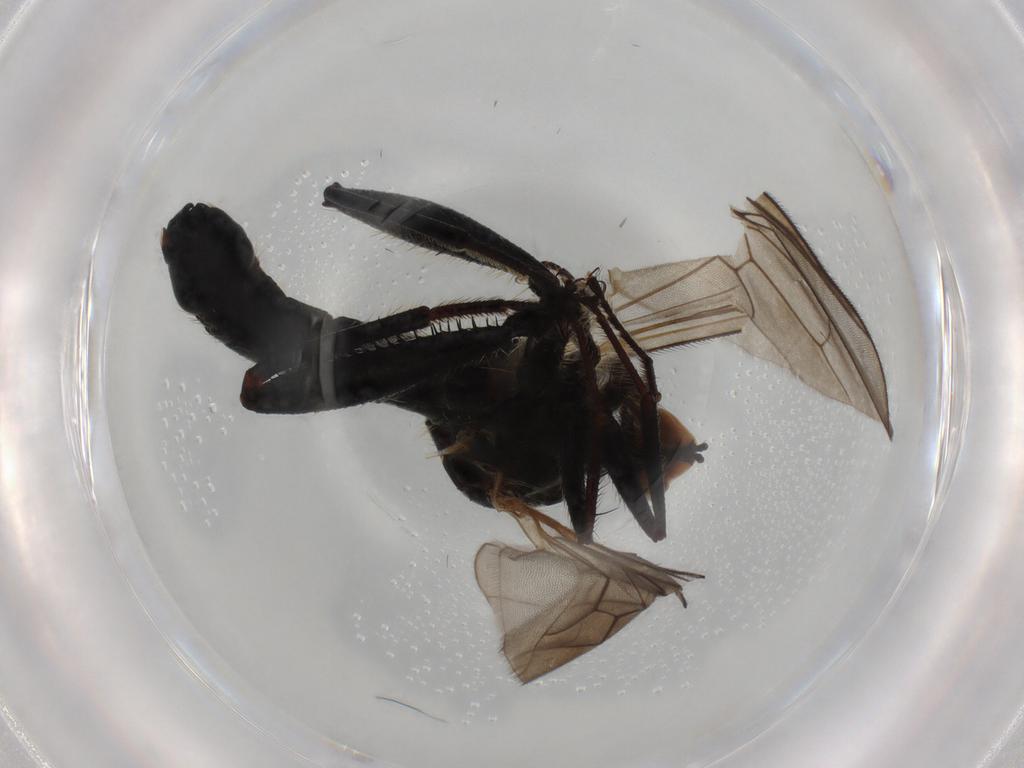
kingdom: Animalia
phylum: Arthropoda
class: Insecta
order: Diptera
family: Hybotidae
